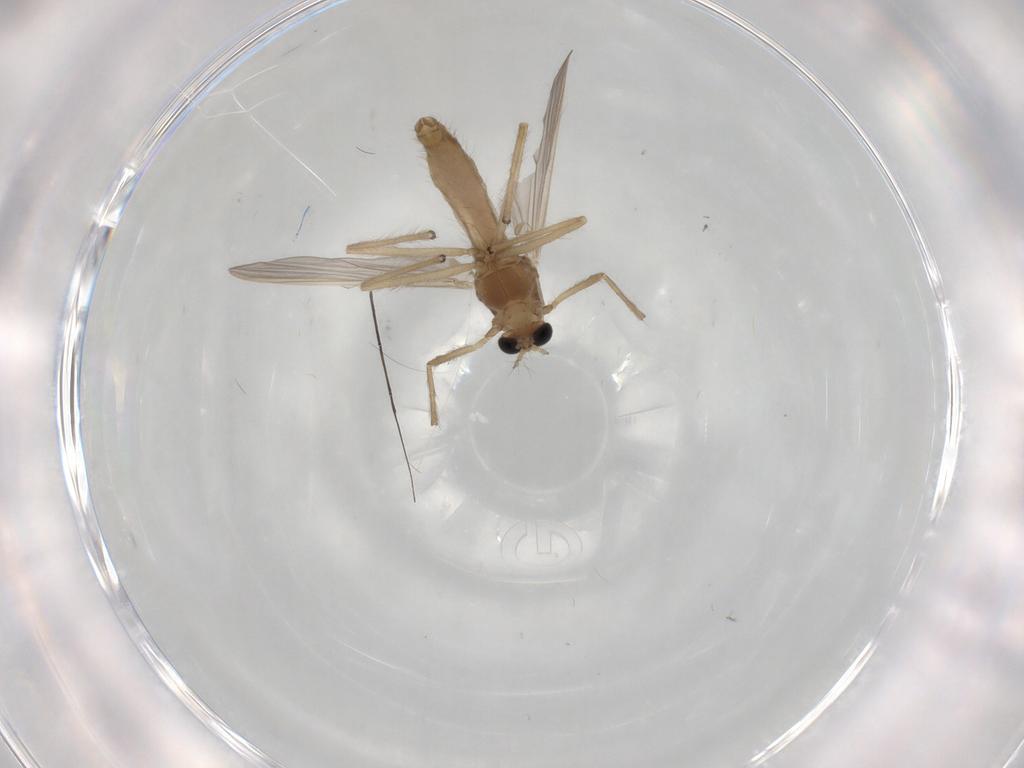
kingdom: Animalia
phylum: Arthropoda
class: Insecta
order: Diptera
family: Chironomidae
